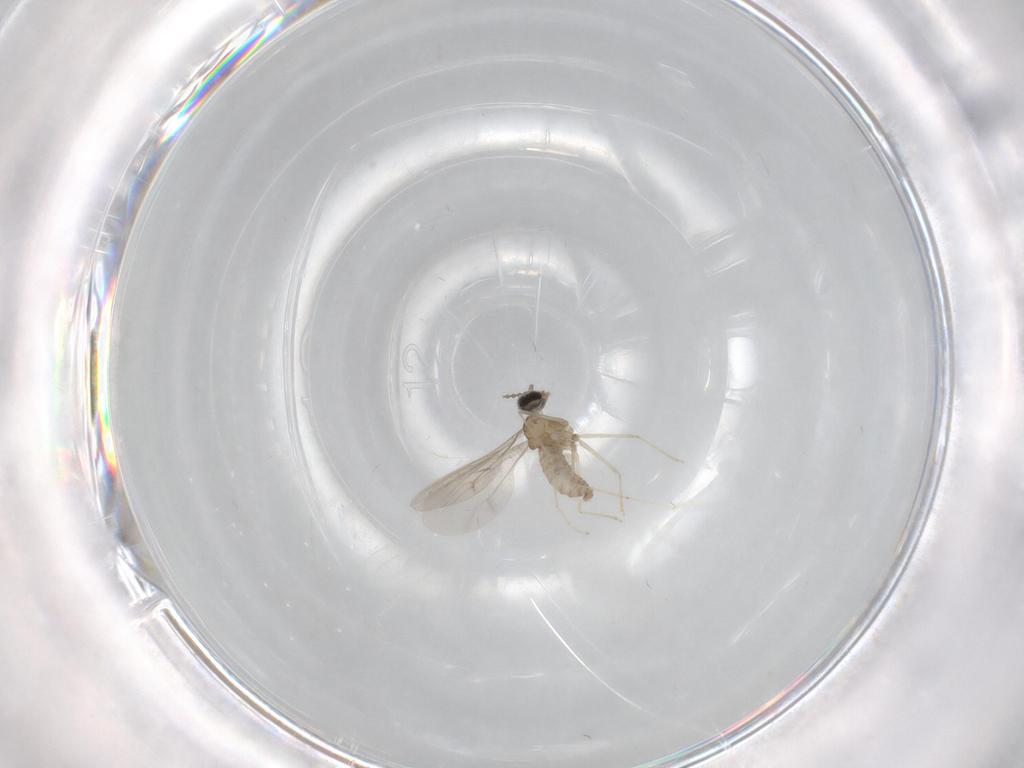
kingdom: Animalia
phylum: Arthropoda
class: Insecta
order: Diptera
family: Cecidomyiidae
